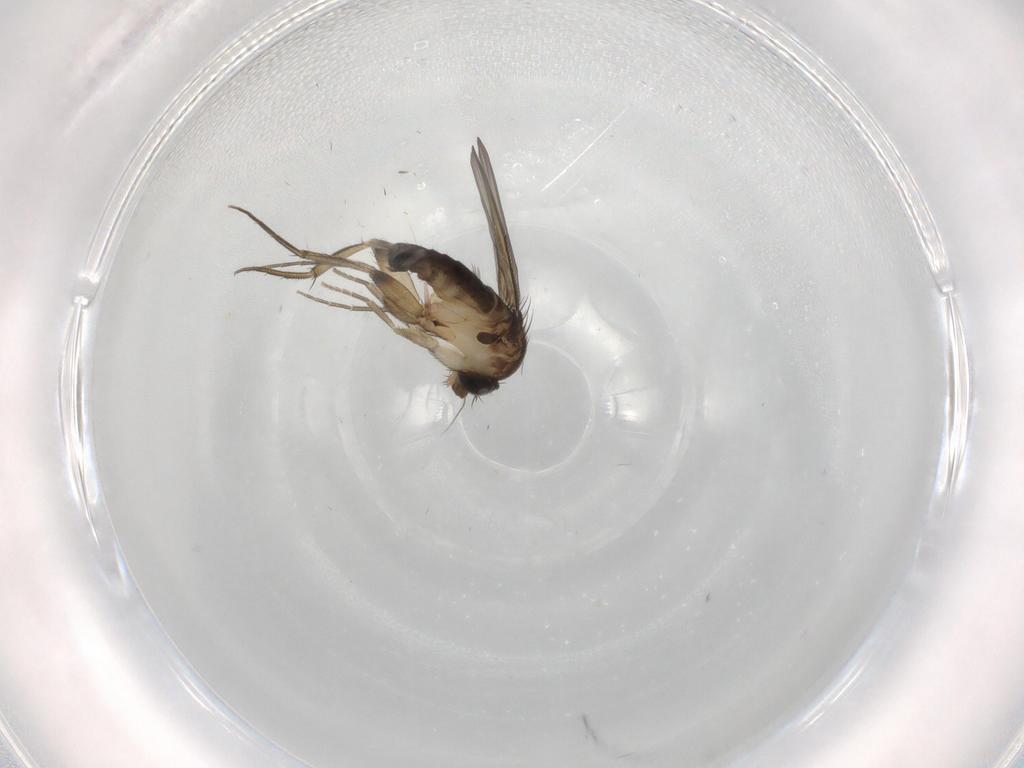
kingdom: Animalia
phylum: Arthropoda
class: Insecta
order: Diptera
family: Phoridae
